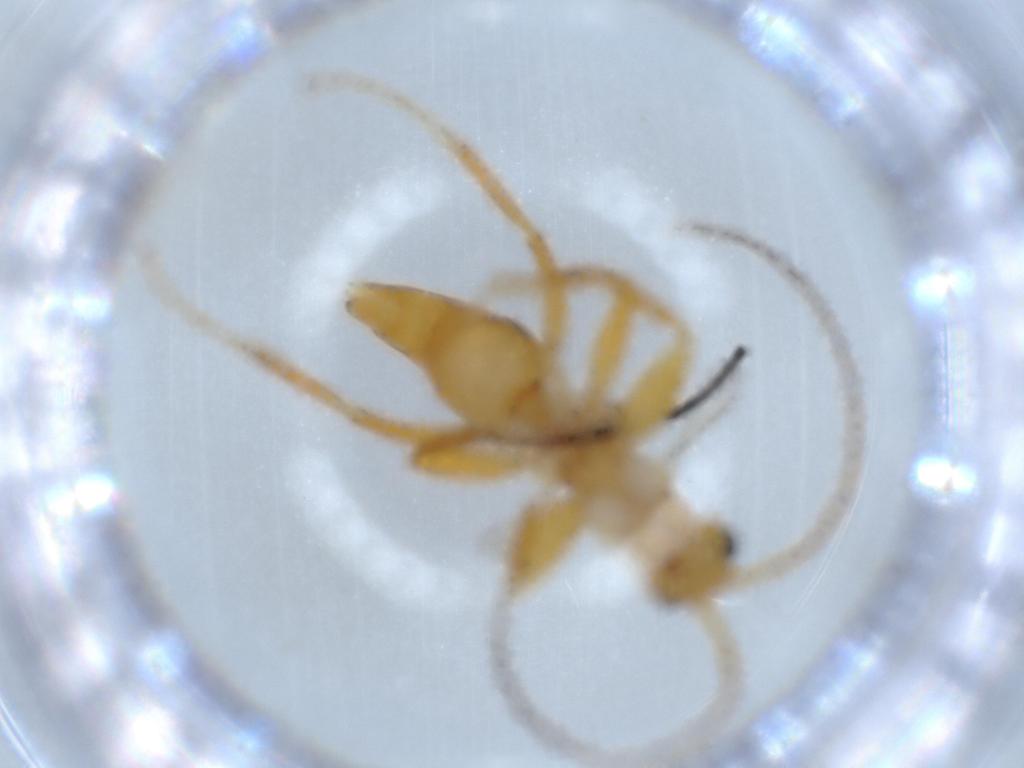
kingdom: Animalia
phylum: Arthropoda
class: Insecta
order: Hymenoptera
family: Rhopalosomatidae
